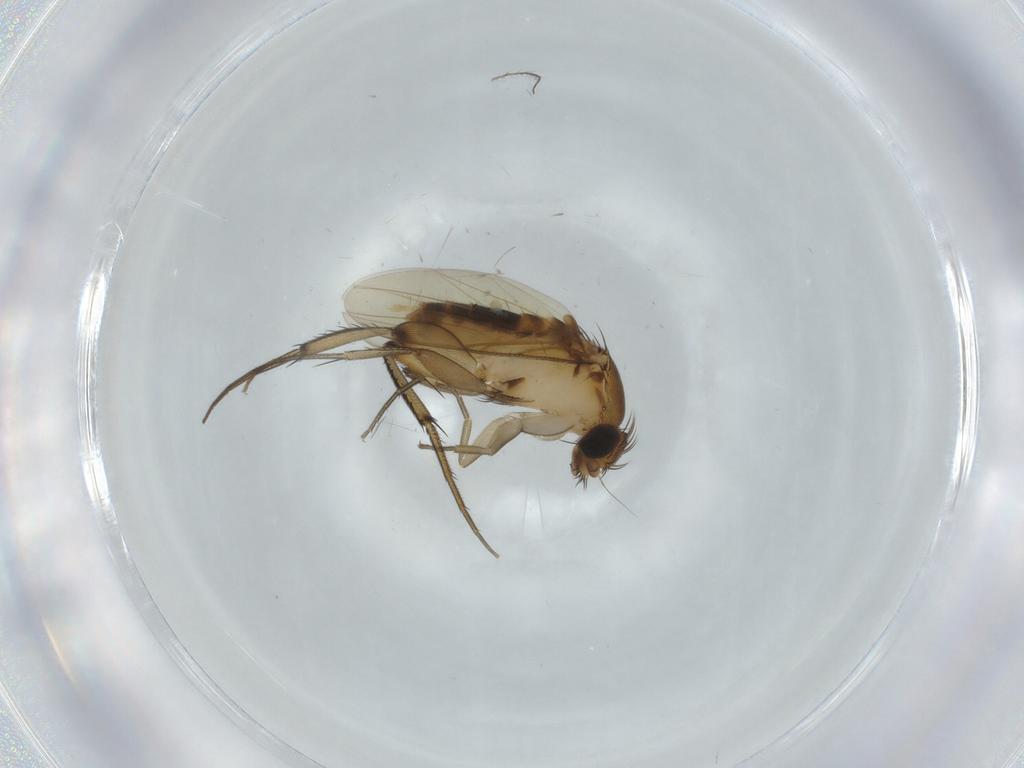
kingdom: Animalia
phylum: Arthropoda
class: Insecta
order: Diptera
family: Phoridae
